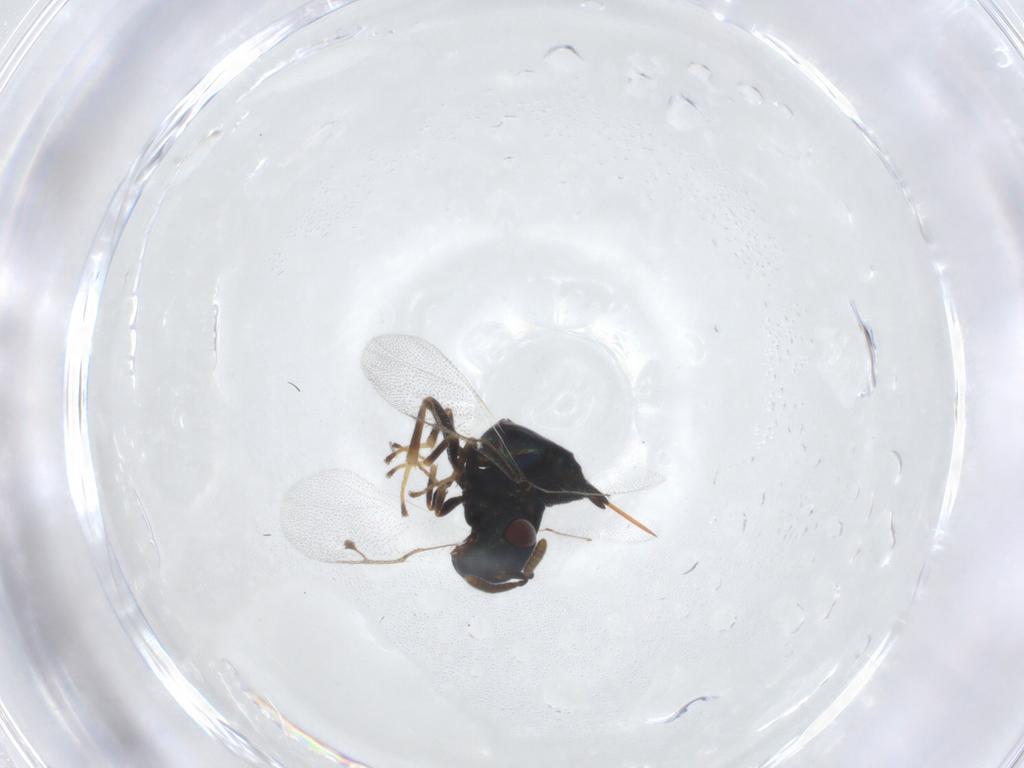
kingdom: Animalia
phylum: Arthropoda
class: Insecta
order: Hymenoptera
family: Pteromalidae
